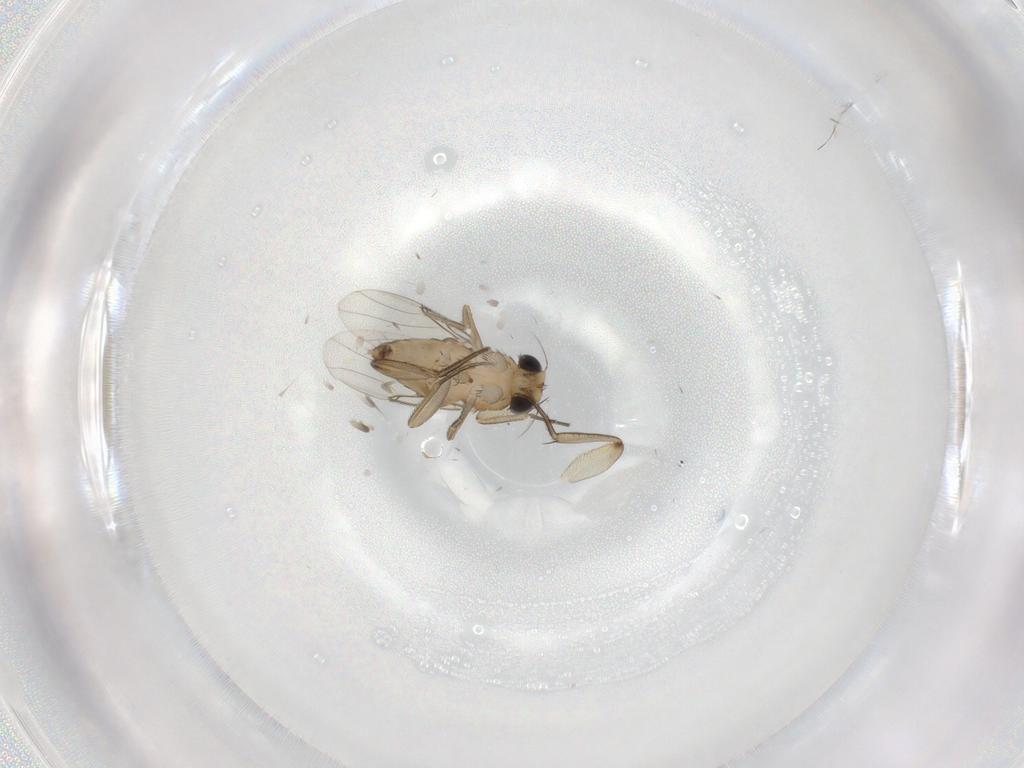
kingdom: Animalia
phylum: Arthropoda
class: Insecta
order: Diptera
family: Phoridae
